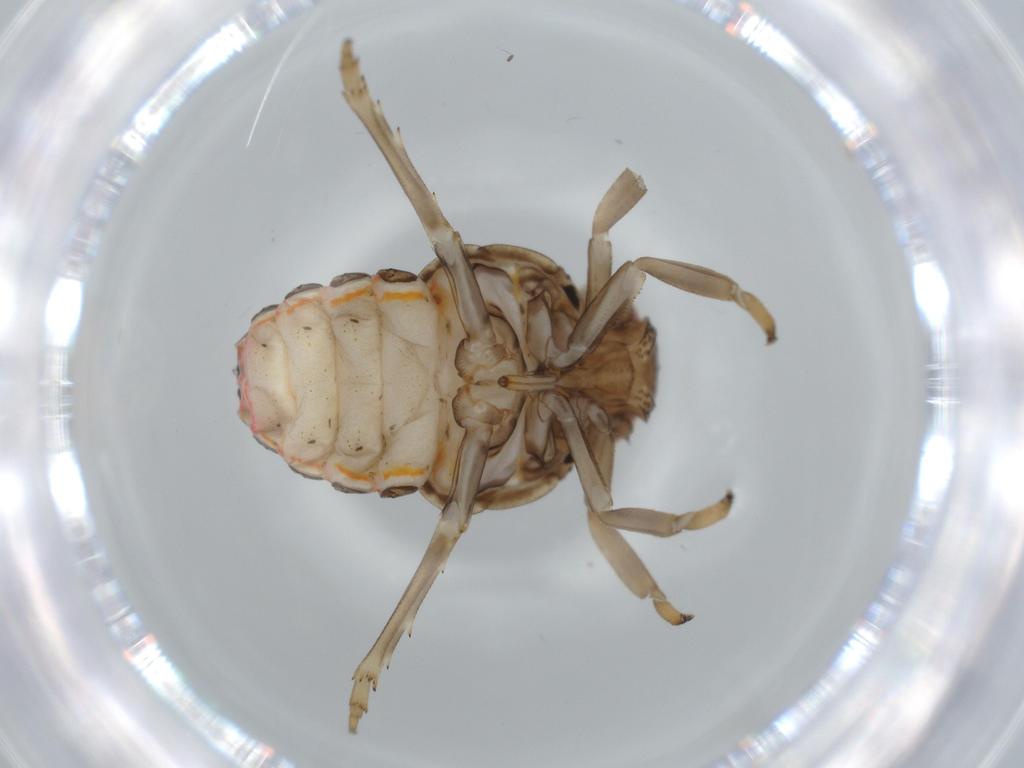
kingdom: Animalia
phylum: Arthropoda
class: Insecta
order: Hemiptera
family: Issidae
